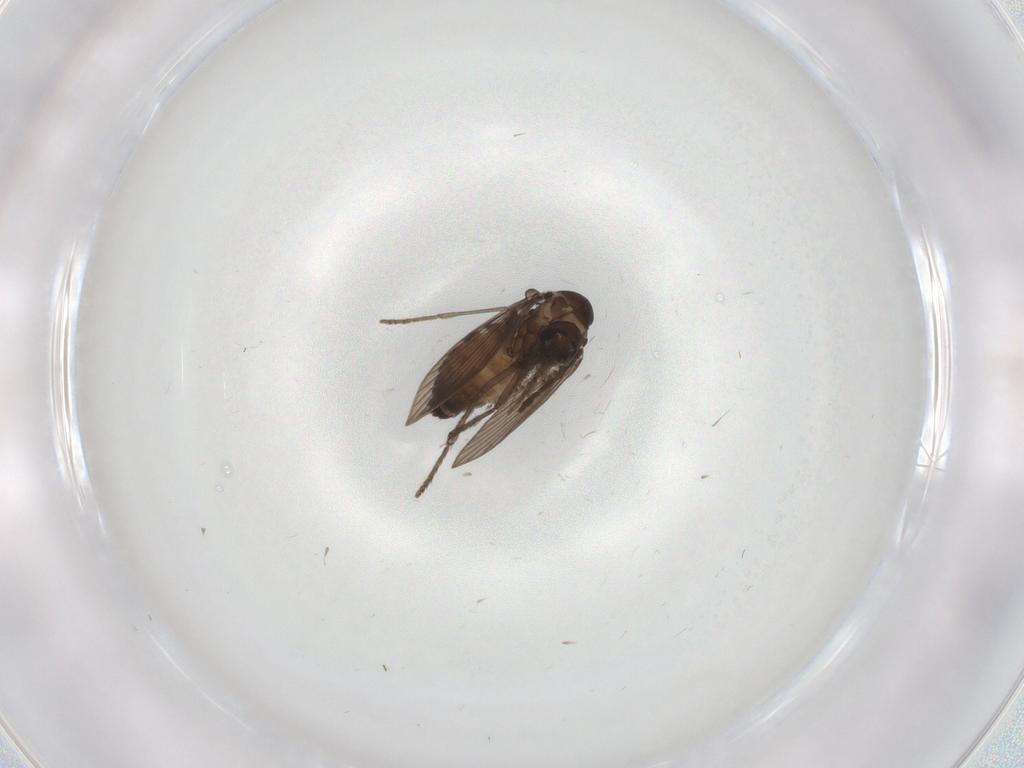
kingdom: Animalia
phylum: Arthropoda
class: Insecta
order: Diptera
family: Psychodidae
